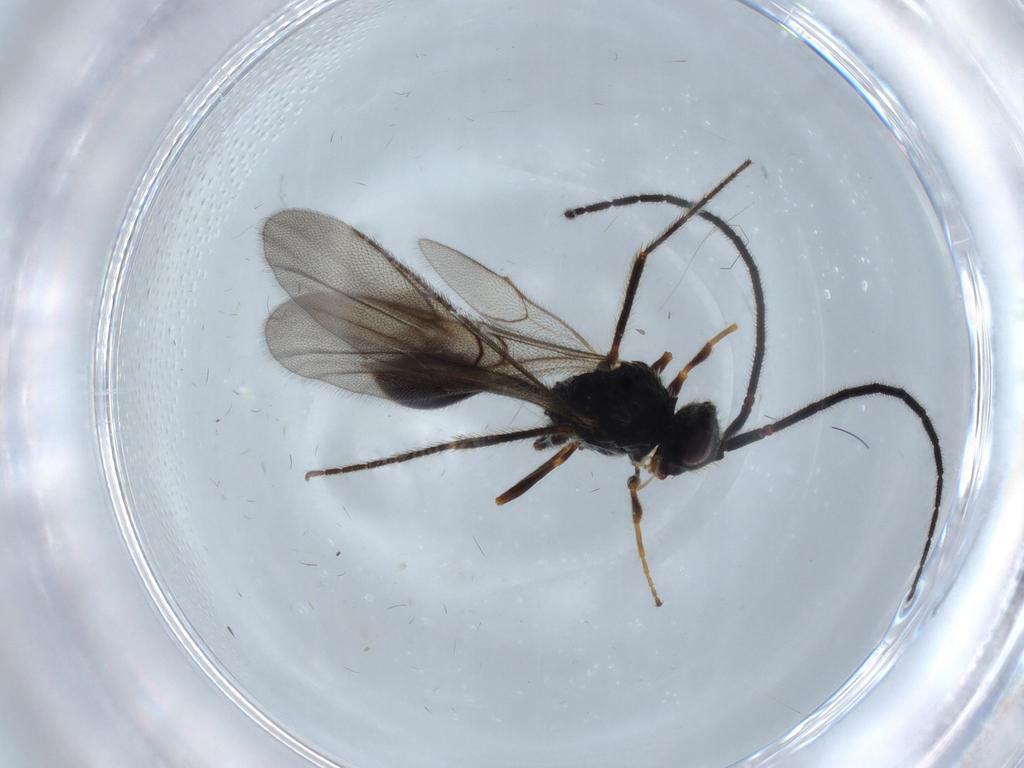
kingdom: Animalia
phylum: Arthropoda
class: Insecta
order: Hymenoptera
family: Diapriidae
